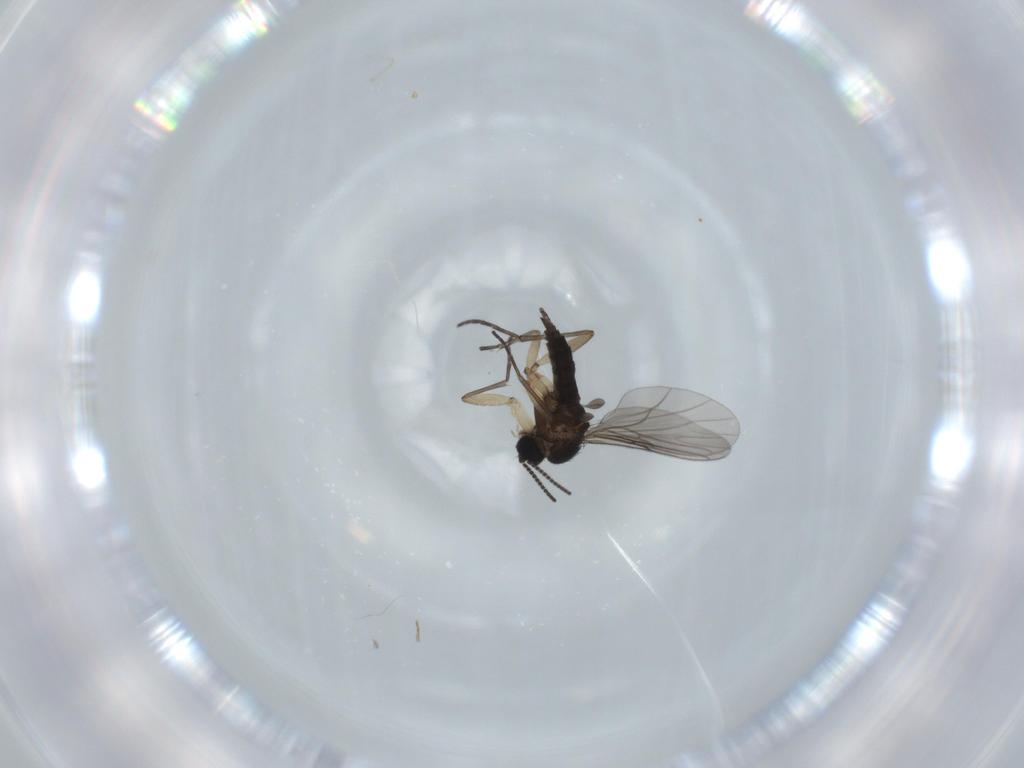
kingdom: Animalia
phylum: Arthropoda
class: Insecta
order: Diptera
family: Sciaridae
